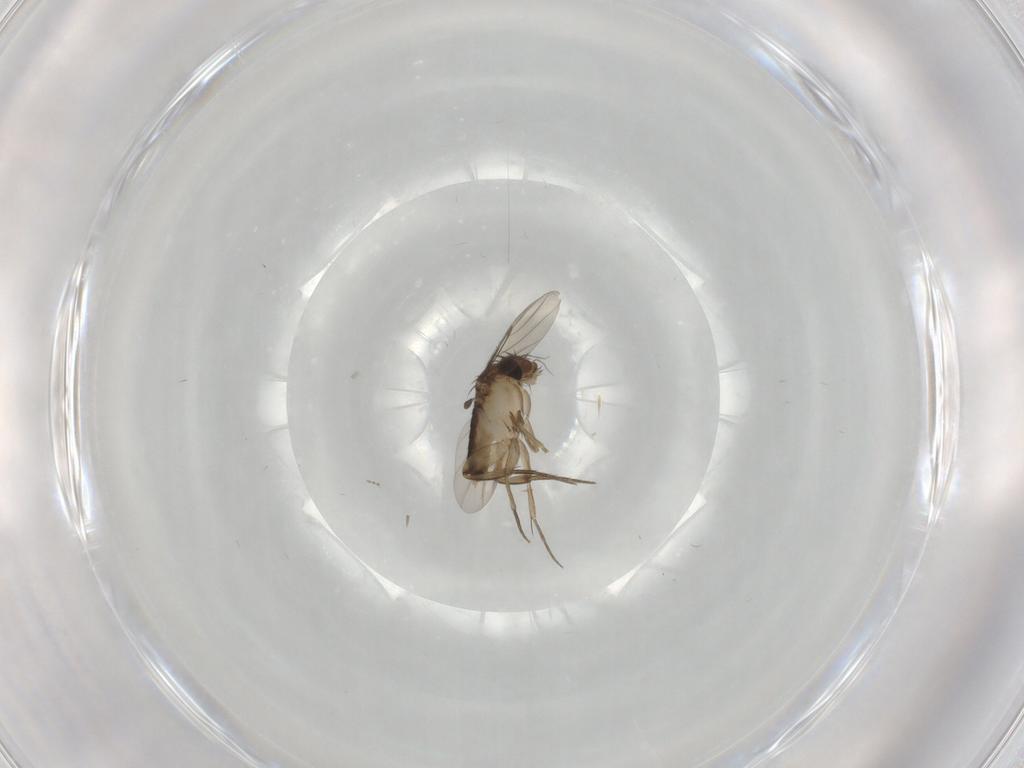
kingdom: Animalia
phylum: Arthropoda
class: Insecta
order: Diptera
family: Phoridae
